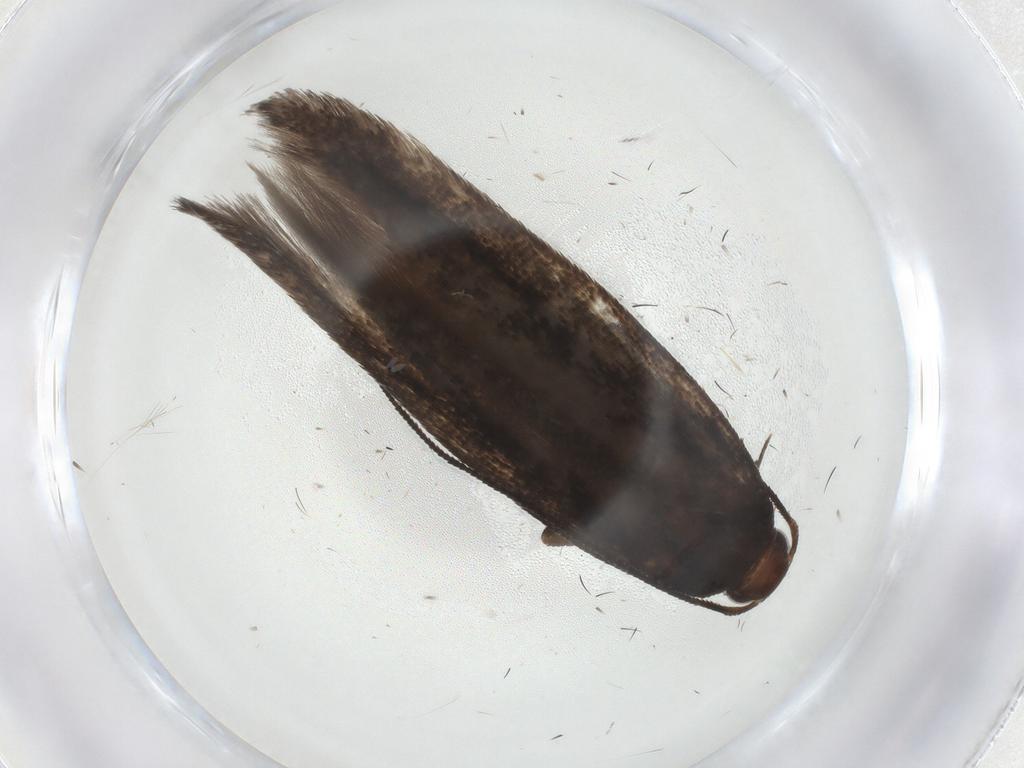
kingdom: Animalia
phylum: Arthropoda
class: Insecta
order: Lepidoptera
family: Gelechiidae
